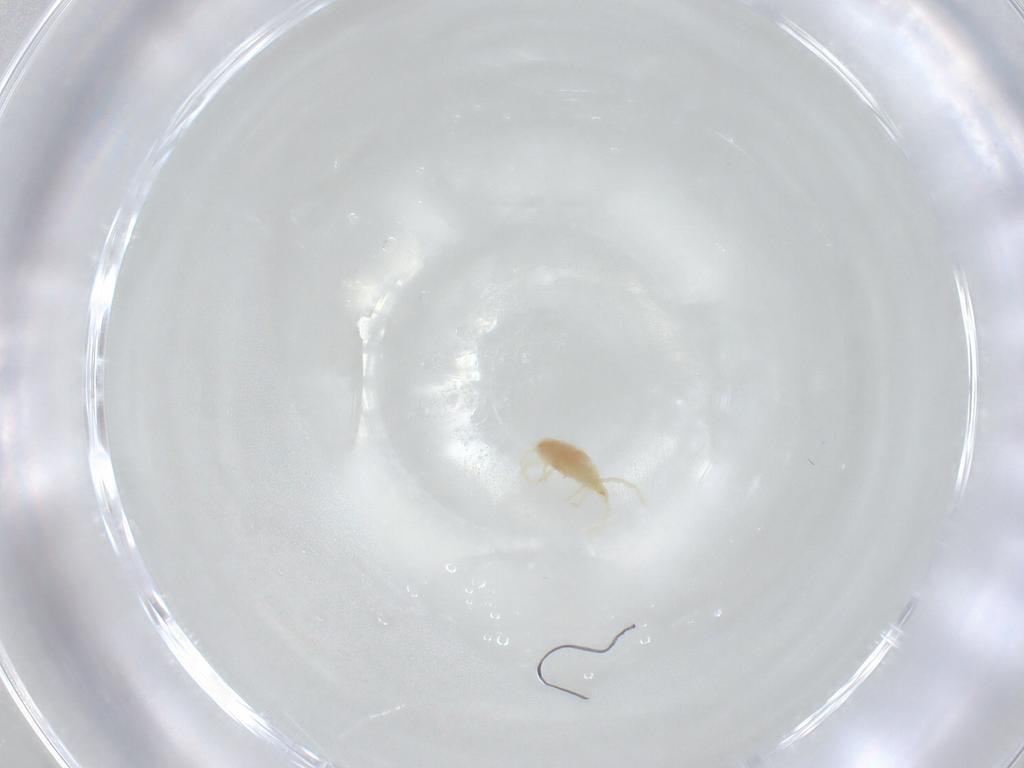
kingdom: Animalia
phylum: Arthropoda
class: Arachnida
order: Trombidiformes
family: Erythraeidae
